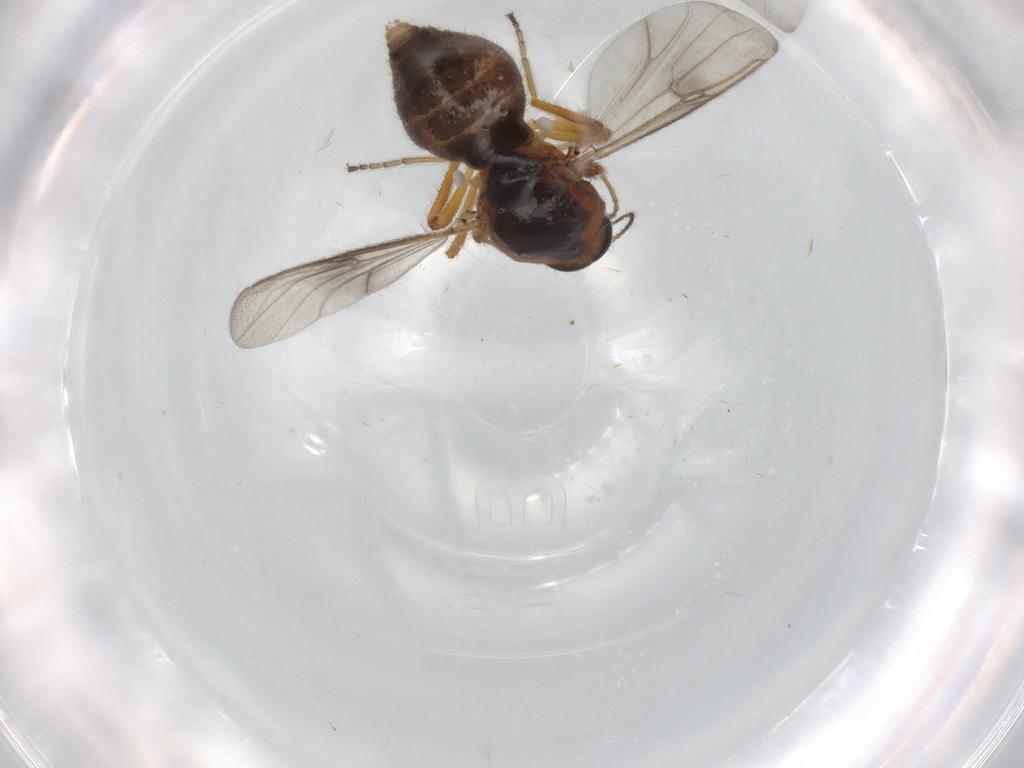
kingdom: Animalia
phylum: Arthropoda
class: Insecta
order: Diptera
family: Ceratopogonidae
